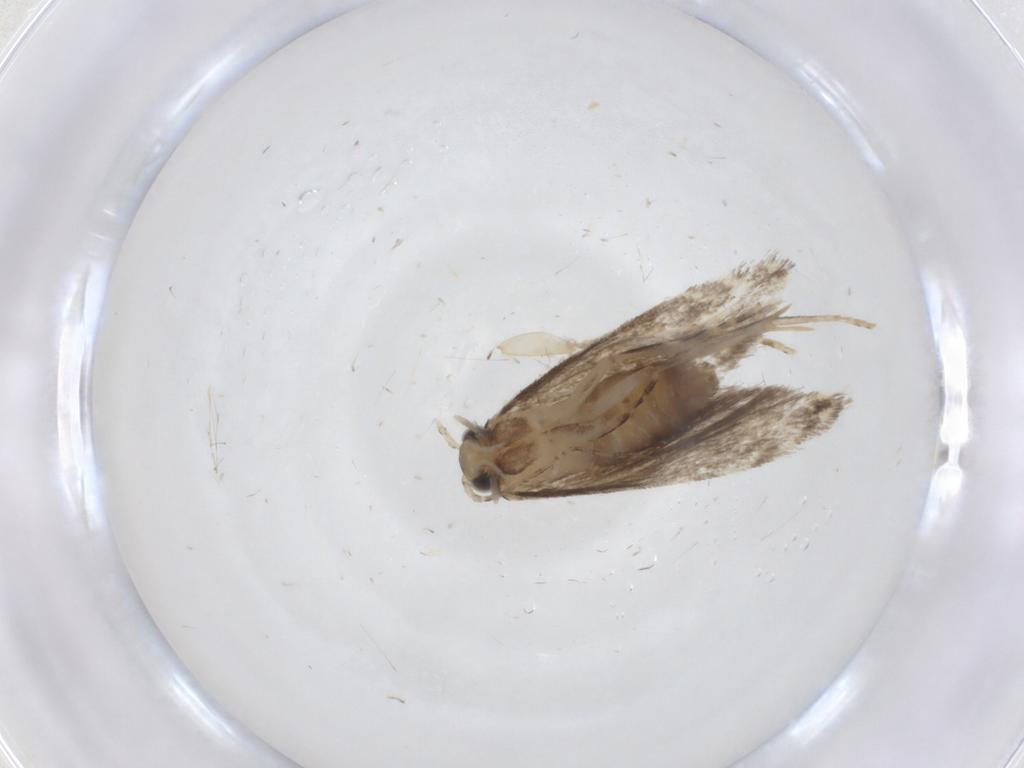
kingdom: Animalia
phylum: Arthropoda
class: Insecta
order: Lepidoptera
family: Tineidae
